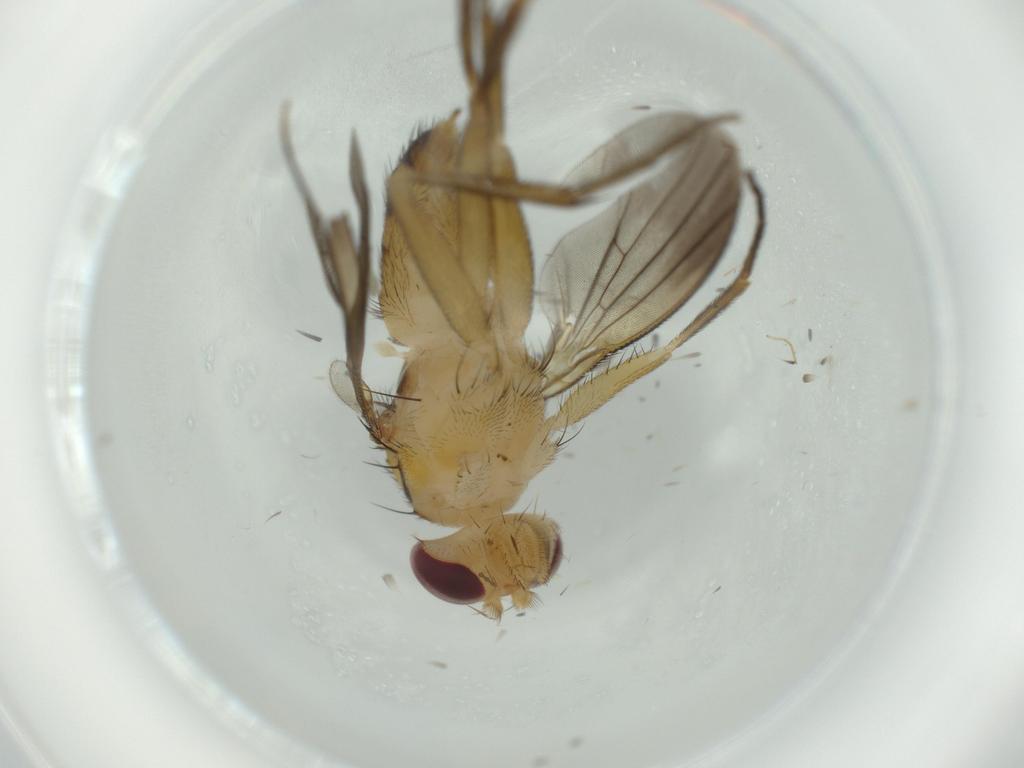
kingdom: Animalia
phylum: Arthropoda
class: Insecta
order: Diptera
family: Clusiidae
